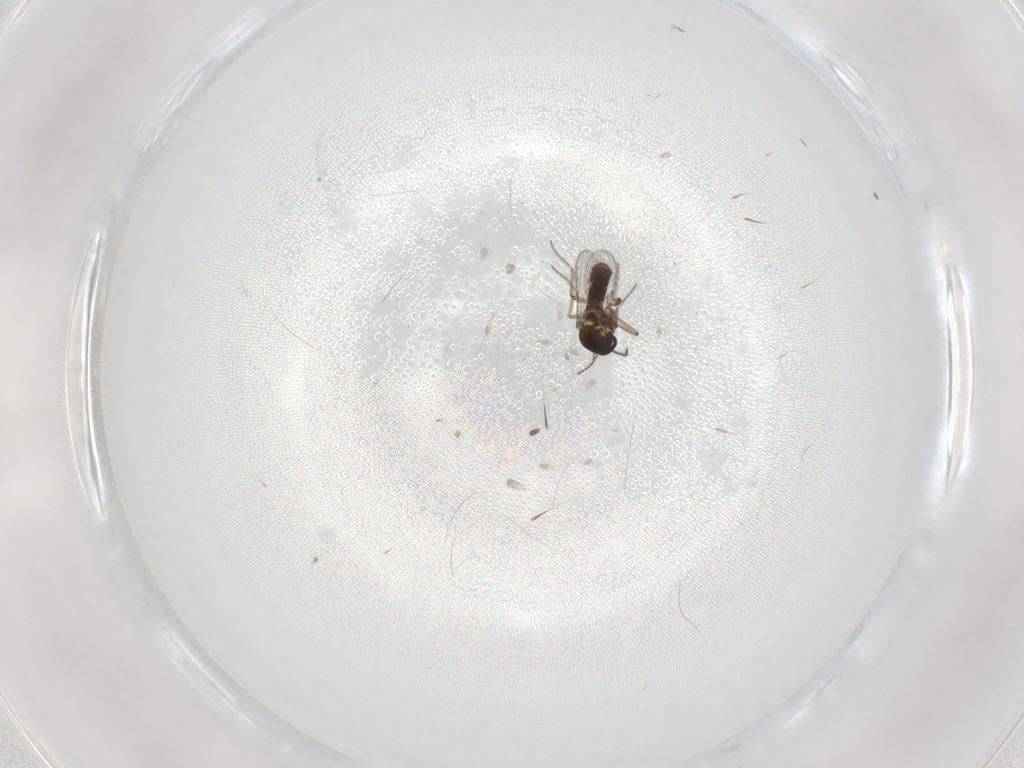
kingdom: Animalia
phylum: Arthropoda
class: Insecta
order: Diptera
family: Ceratopogonidae
